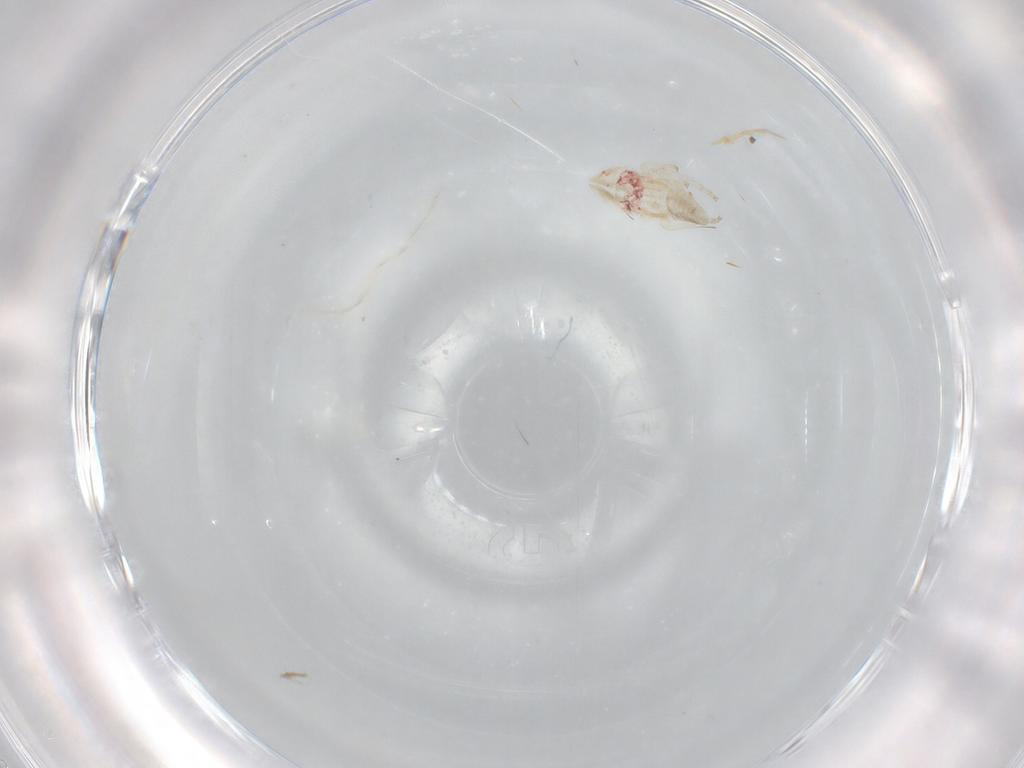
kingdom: Animalia
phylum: Arthropoda
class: Insecta
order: Hemiptera
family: Cicadellidae
